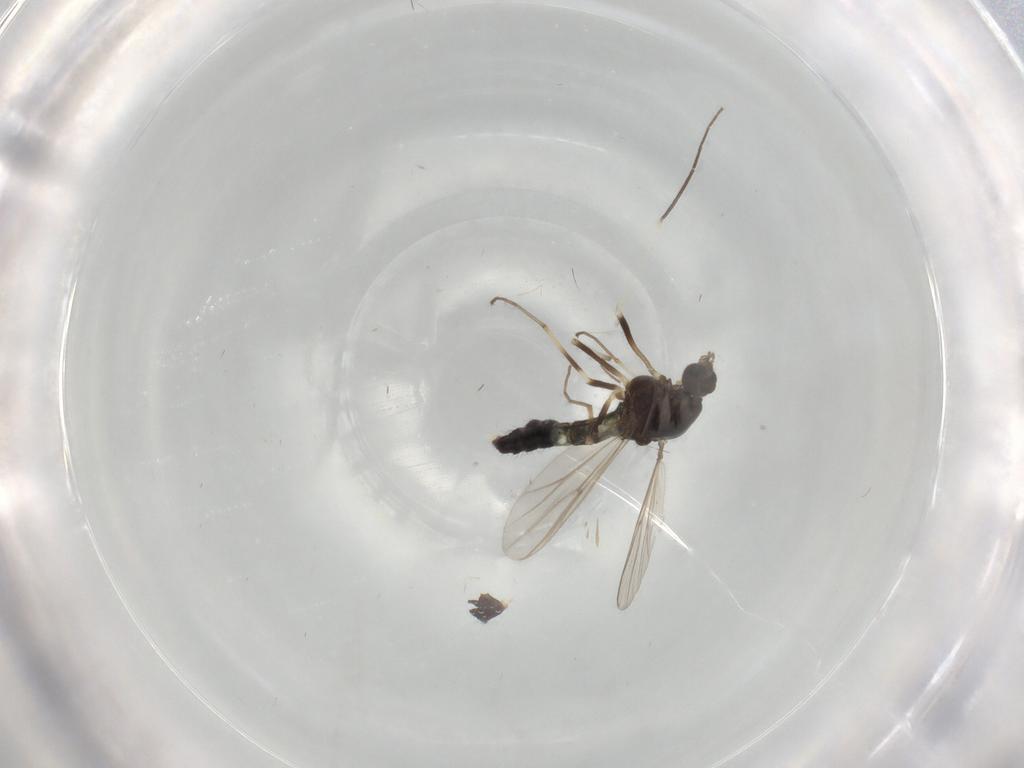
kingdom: Animalia
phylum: Arthropoda
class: Insecta
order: Diptera
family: Chironomidae
